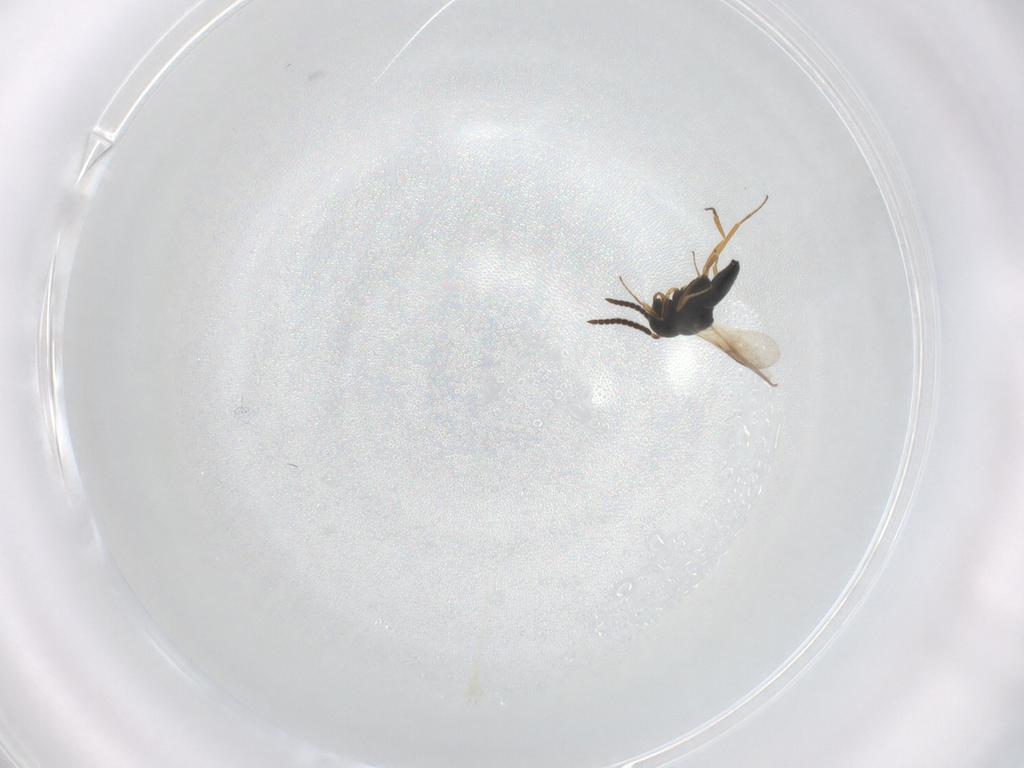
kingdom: Animalia
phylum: Arthropoda
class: Insecta
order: Hymenoptera
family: Scelionidae
